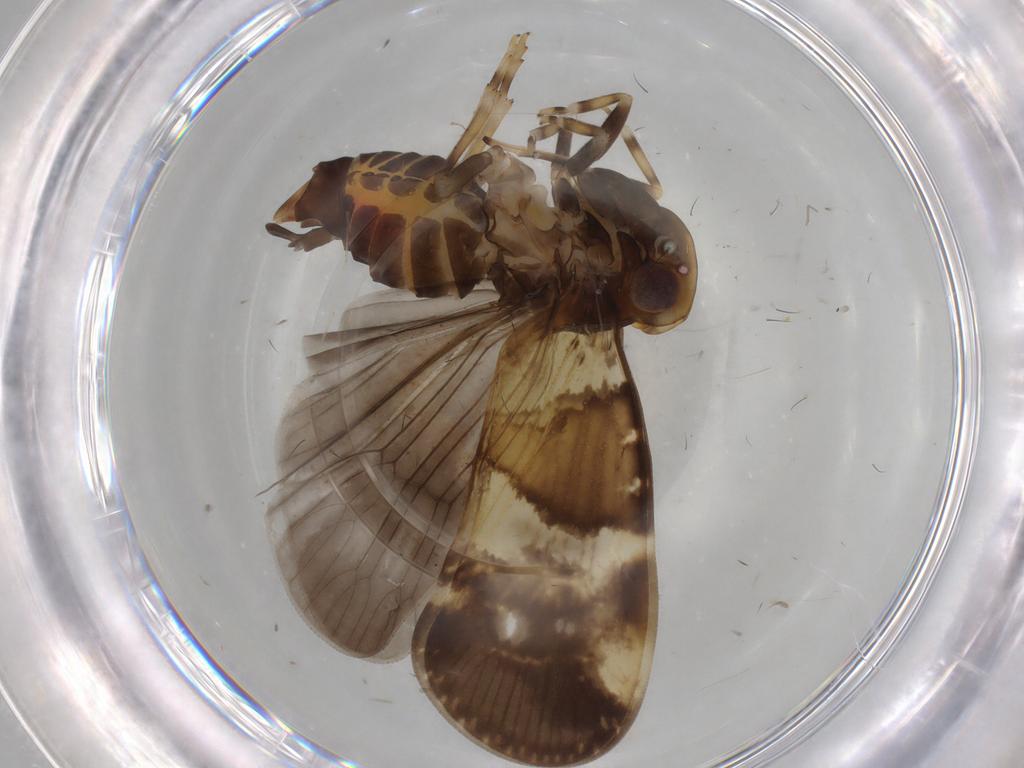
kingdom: Animalia
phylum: Arthropoda
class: Insecta
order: Hemiptera
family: Cixiidae
